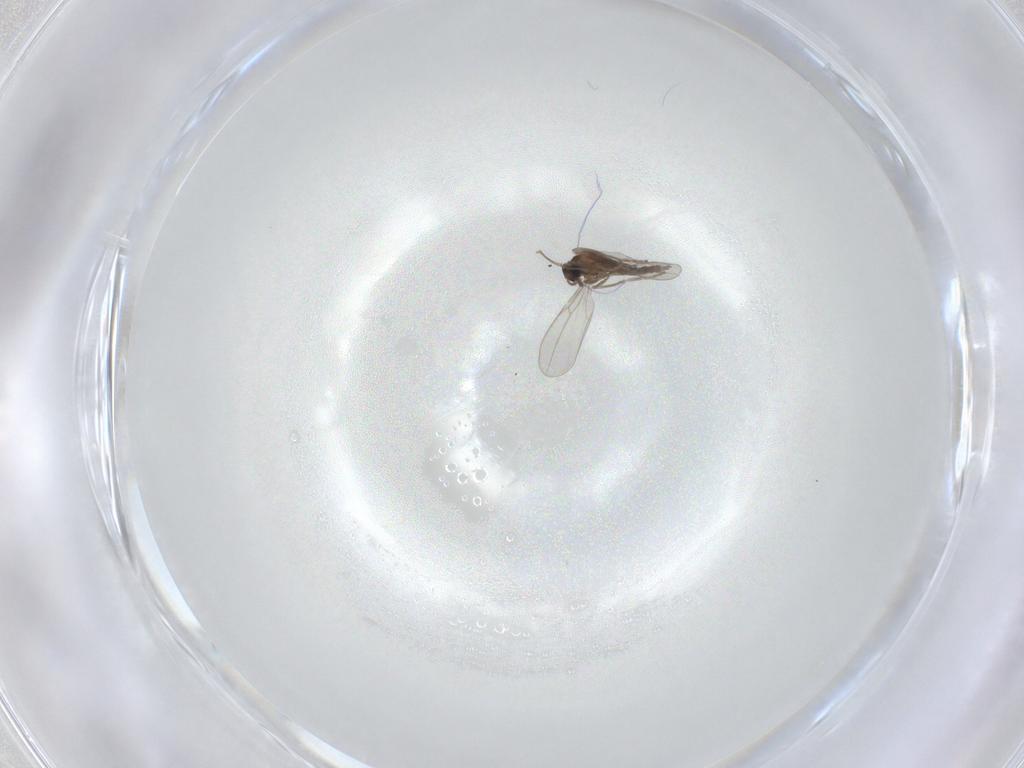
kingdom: Animalia
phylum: Arthropoda
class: Insecta
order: Diptera
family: Cecidomyiidae
